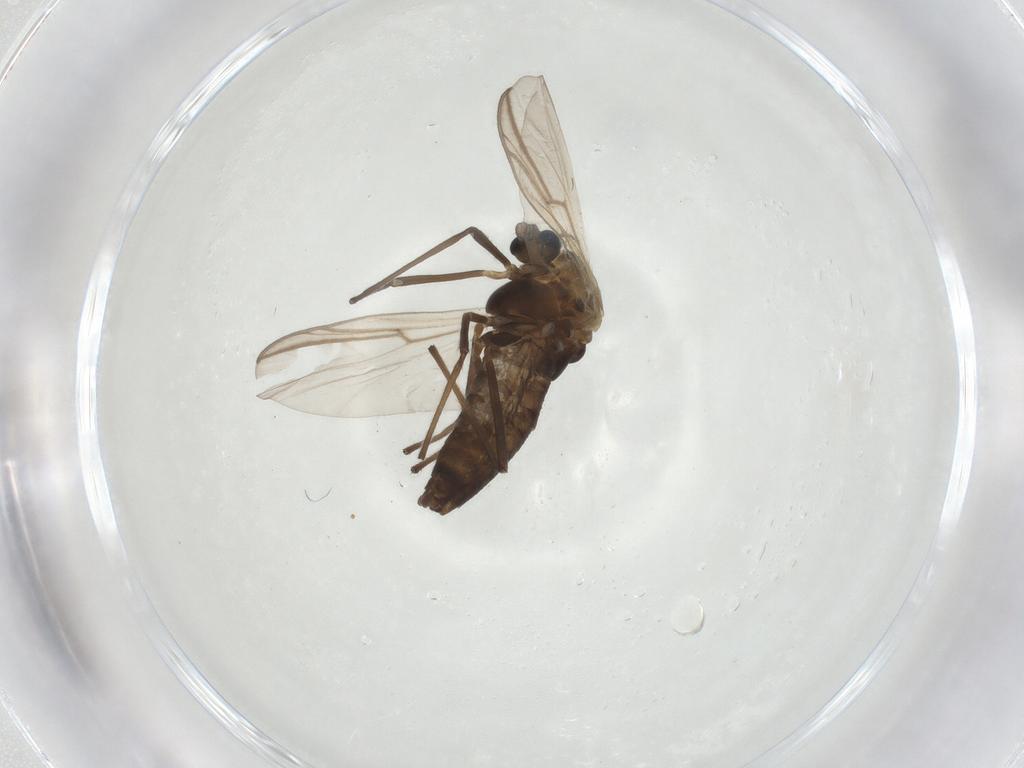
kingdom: Animalia
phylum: Arthropoda
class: Insecta
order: Diptera
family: Chironomidae
